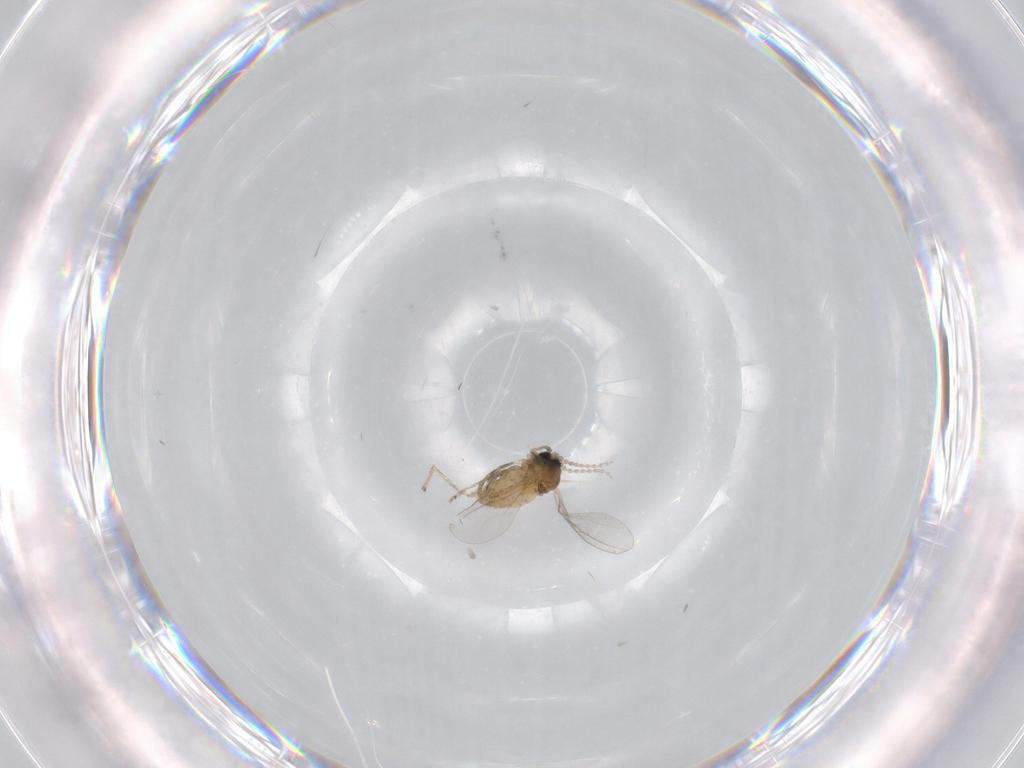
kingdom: Animalia
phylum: Arthropoda
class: Insecta
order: Diptera
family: Cecidomyiidae
